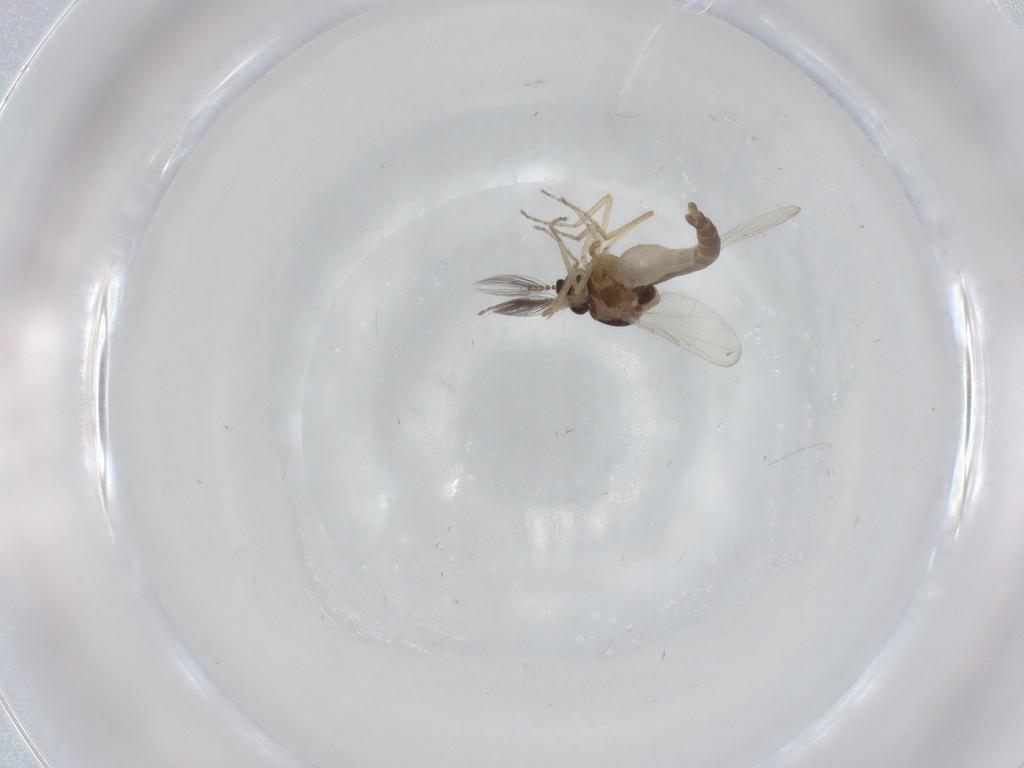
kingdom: Animalia
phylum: Arthropoda
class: Insecta
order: Diptera
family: Ceratopogonidae
